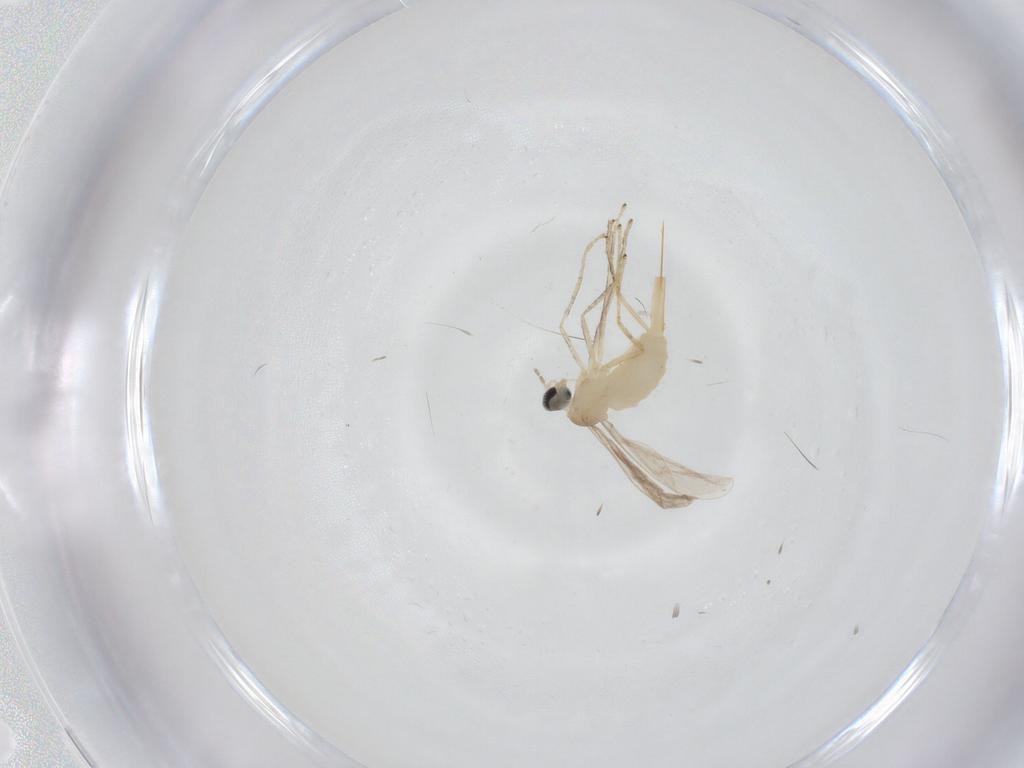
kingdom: Animalia
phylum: Arthropoda
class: Insecta
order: Diptera
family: Cecidomyiidae
